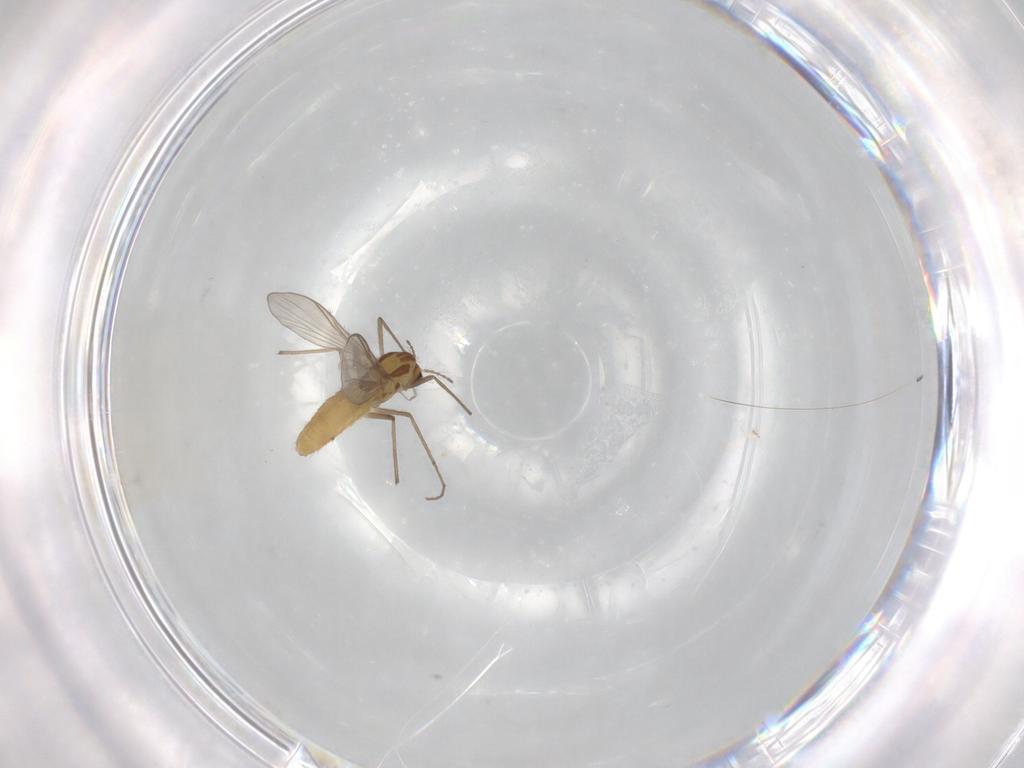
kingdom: Animalia
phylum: Arthropoda
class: Insecta
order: Diptera
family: Chironomidae
